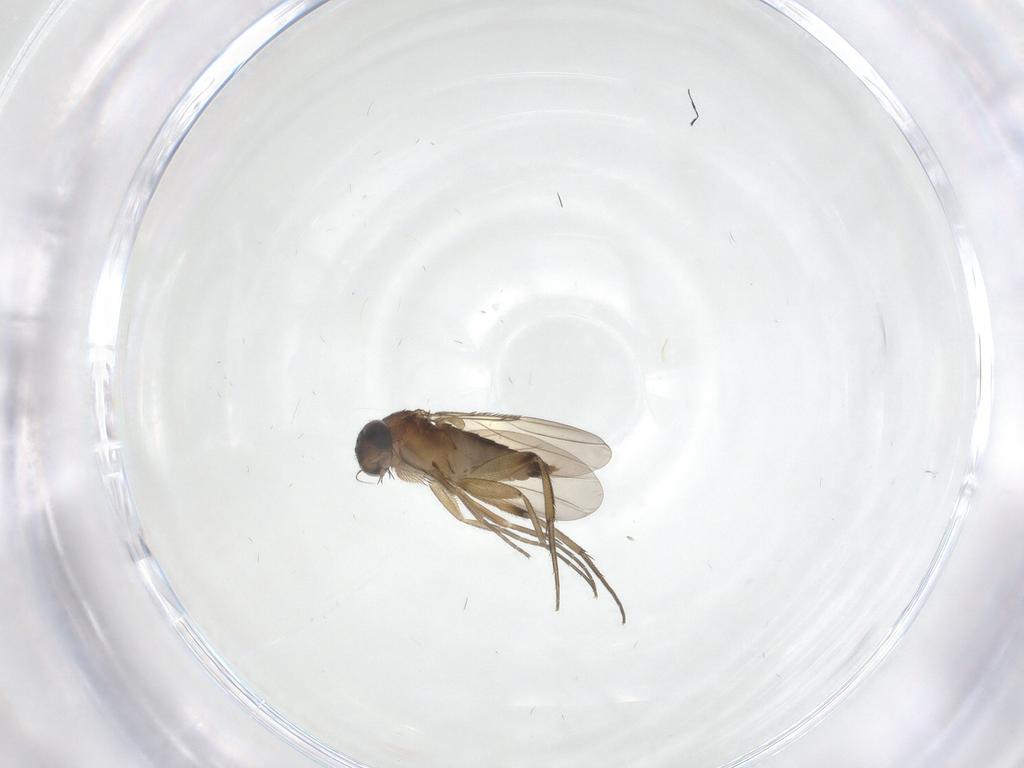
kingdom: Animalia
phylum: Arthropoda
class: Insecta
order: Diptera
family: Phoridae
